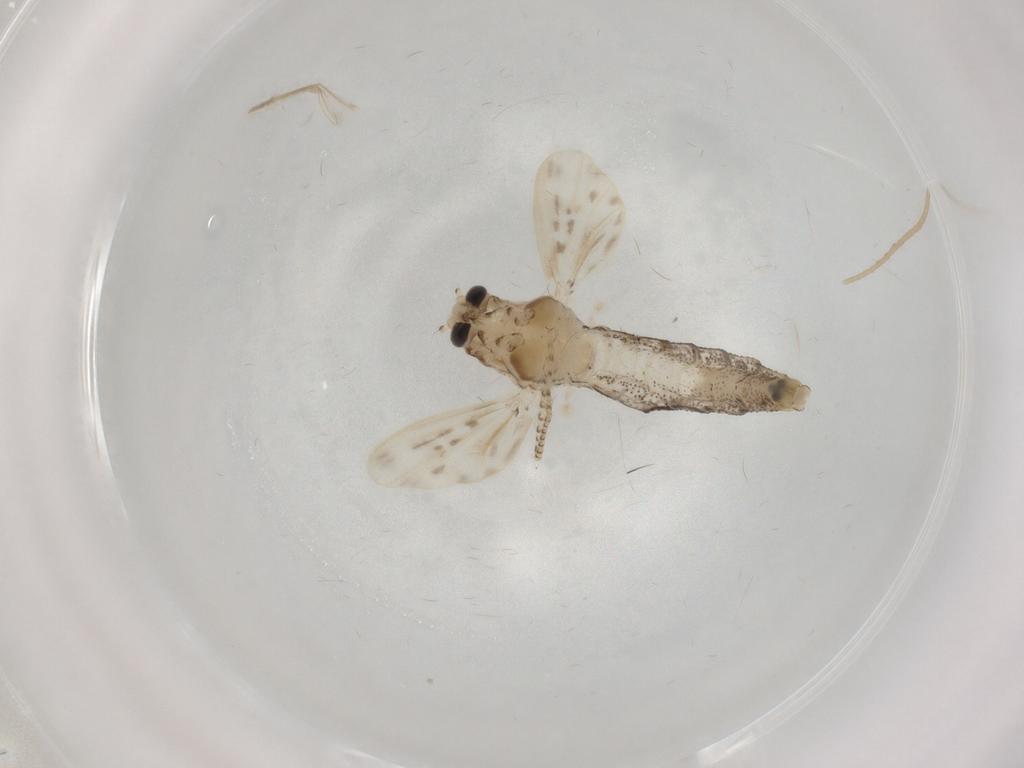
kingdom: Animalia
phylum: Arthropoda
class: Insecta
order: Diptera
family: Chaoboridae
